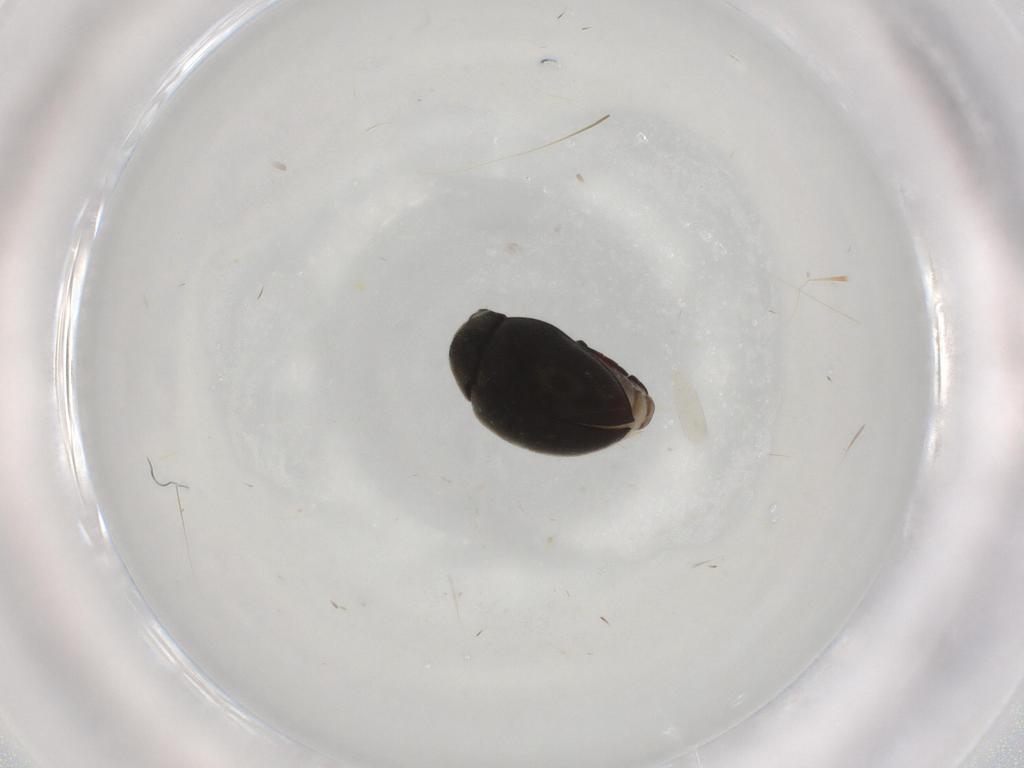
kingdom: Animalia
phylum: Arthropoda
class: Insecta
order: Coleoptera
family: Limnichidae
